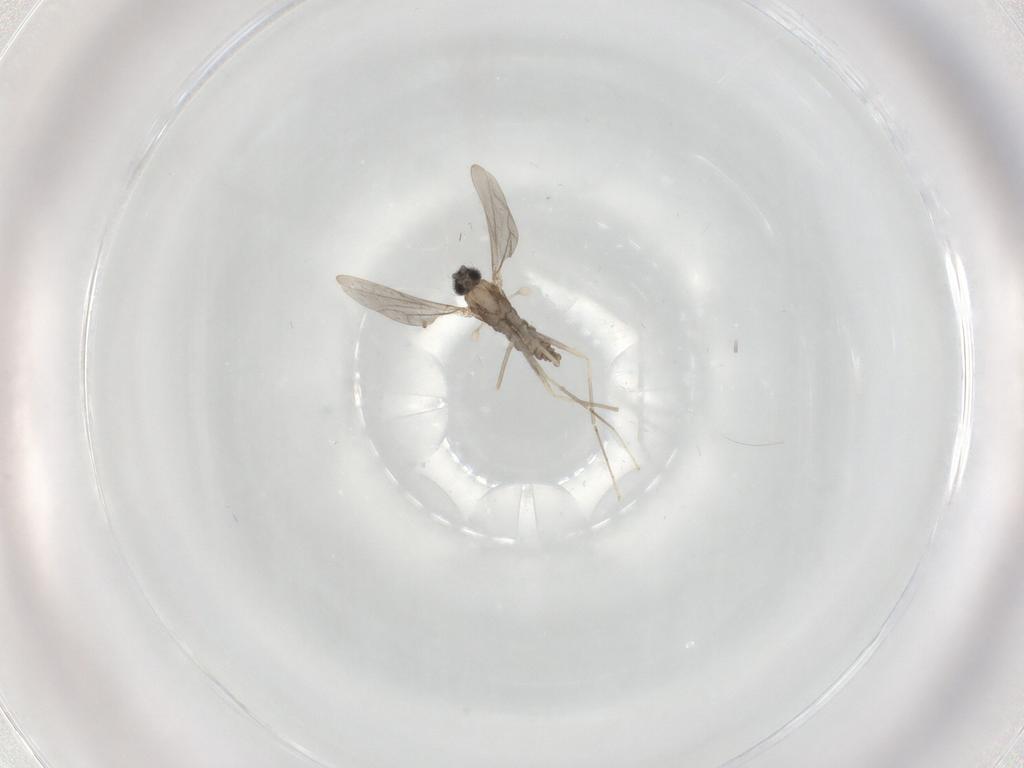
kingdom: Animalia
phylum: Arthropoda
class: Insecta
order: Diptera
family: Cecidomyiidae
